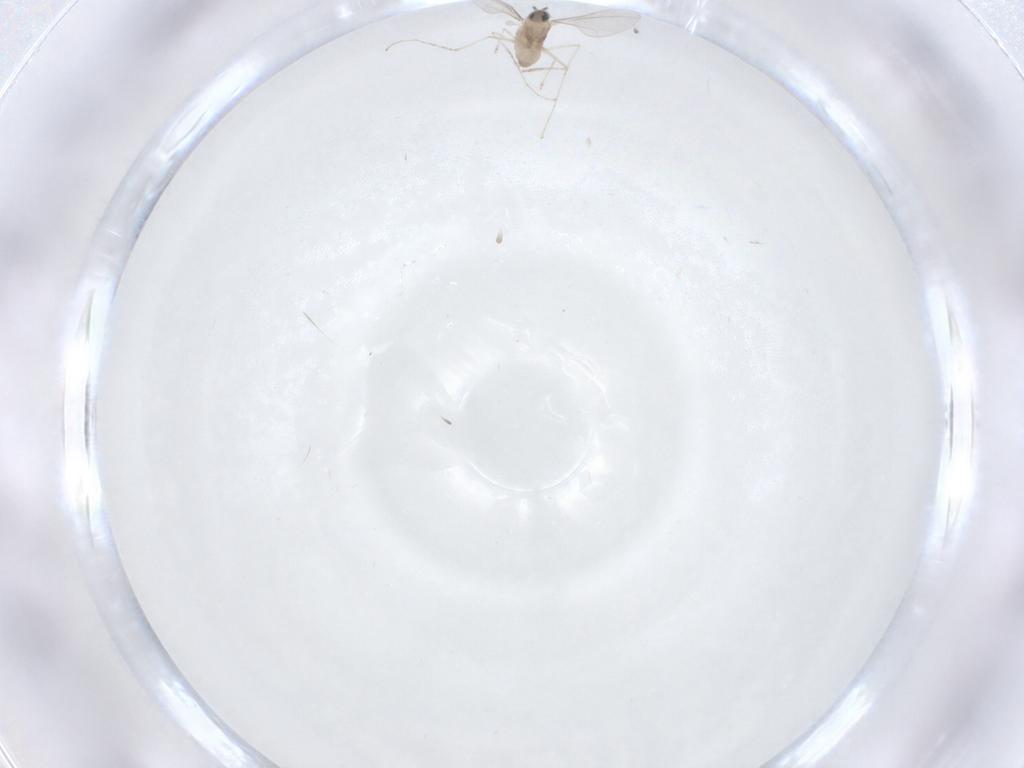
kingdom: Animalia
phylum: Arthropoda
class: Insecta
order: Diptera
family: Cecidomyiidae
